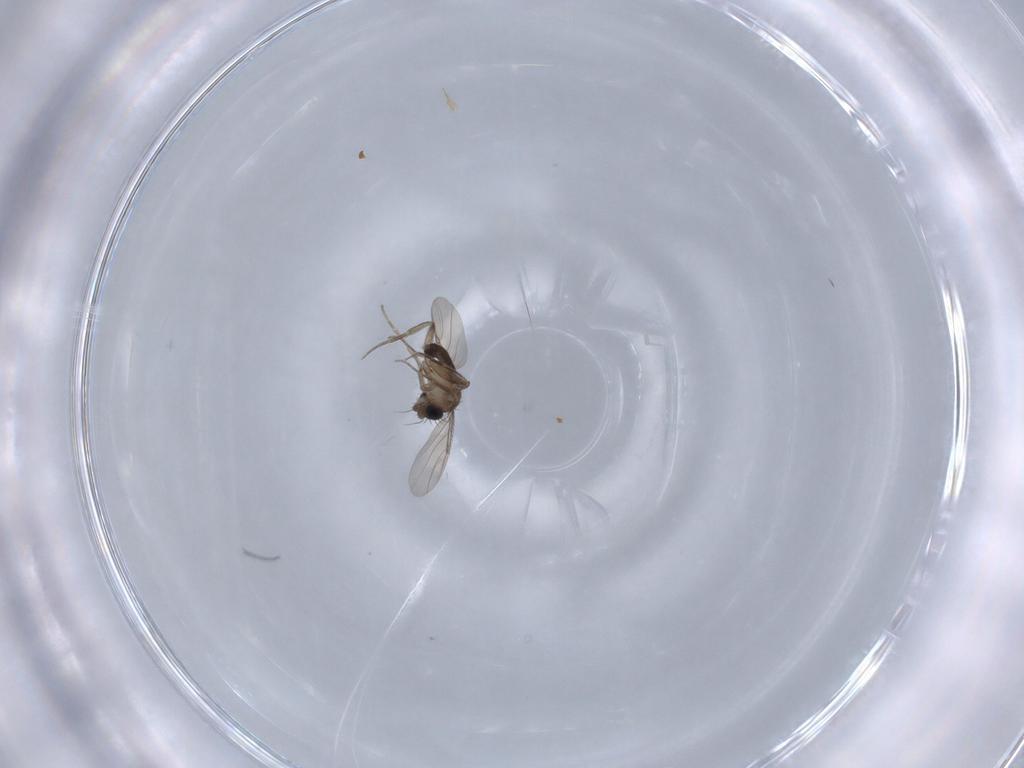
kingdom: Animalia
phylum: Arthropoda
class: Insecta
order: Diptera
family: Phoridae
